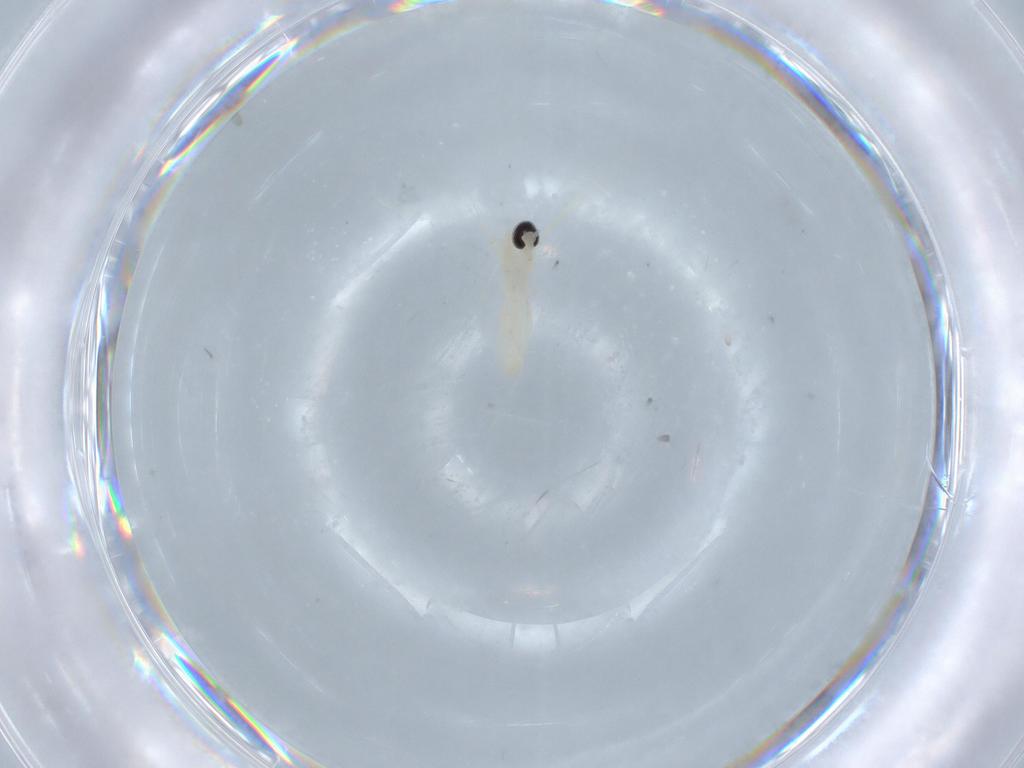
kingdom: Animalia
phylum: Arthropoda
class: Insecta
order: Diptera
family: Cecidomyiidae
